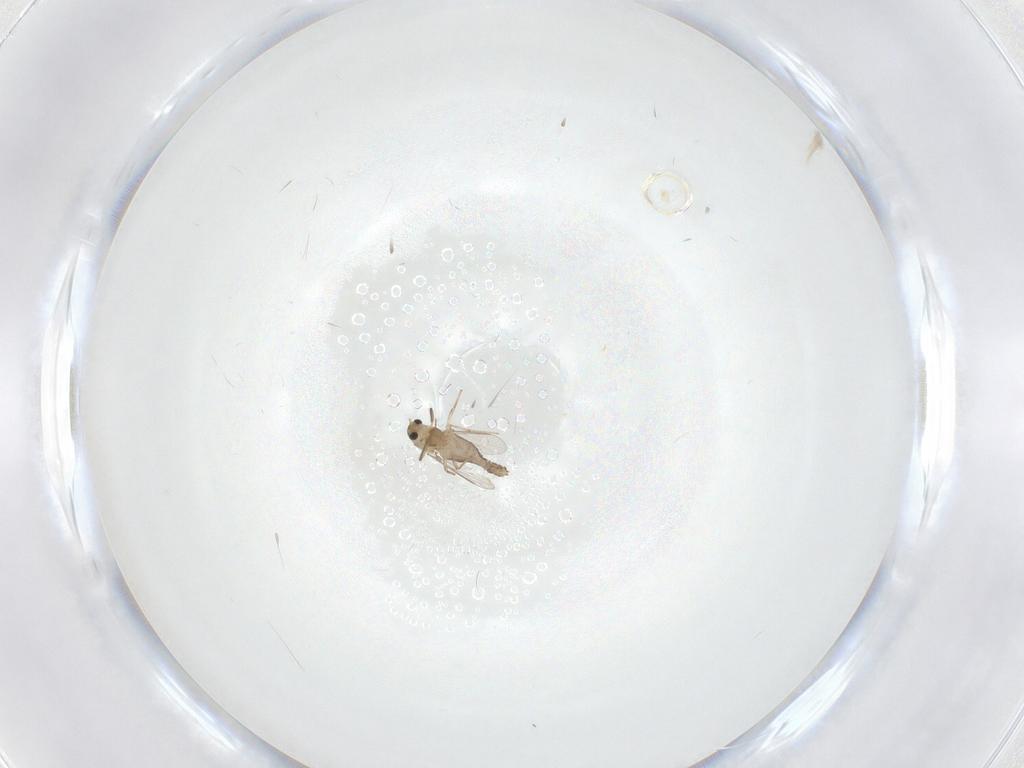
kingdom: Animalia
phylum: Arthropoda
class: Insecta
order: Diptera
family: Chironomidae
